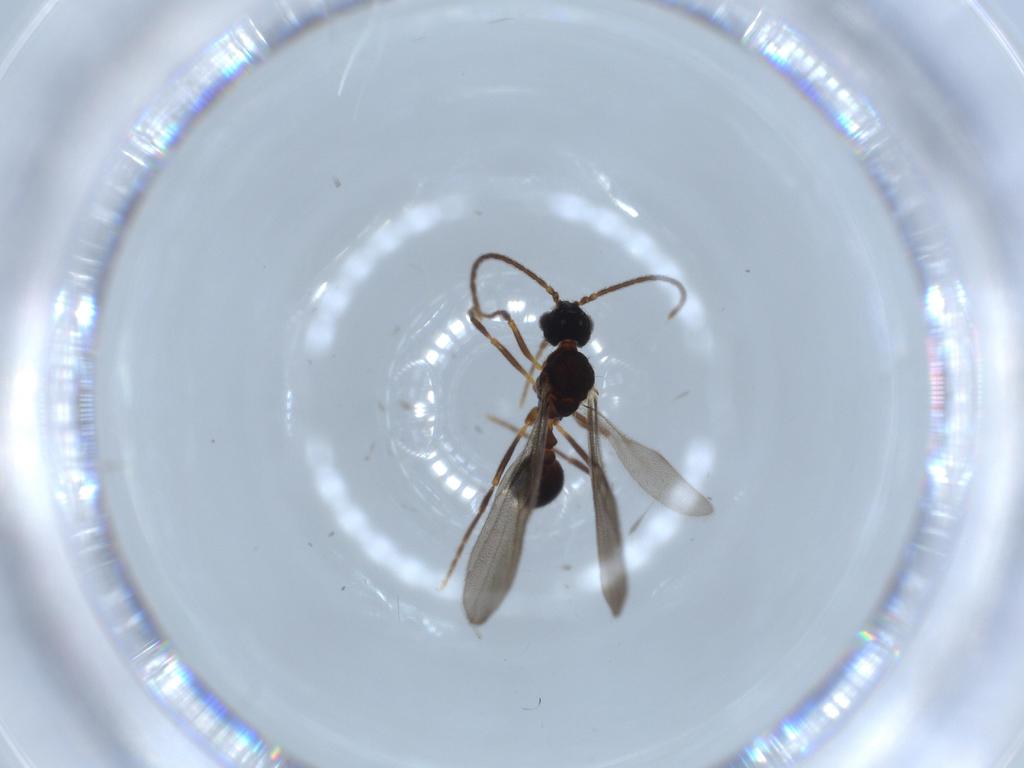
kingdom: Animalia
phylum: Arthropoda
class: Insecta
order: Hymenoptera
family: Formicidae
